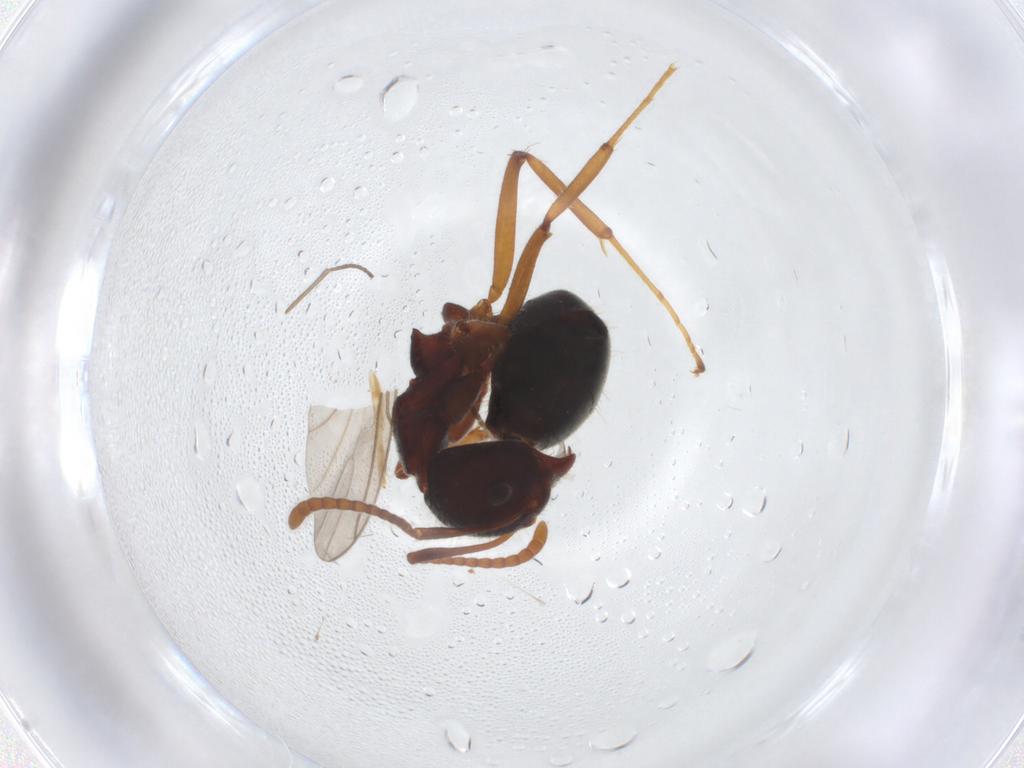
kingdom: Animalia
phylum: Arthropoda
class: Insecta
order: Hymenoptera
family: Formicidae
